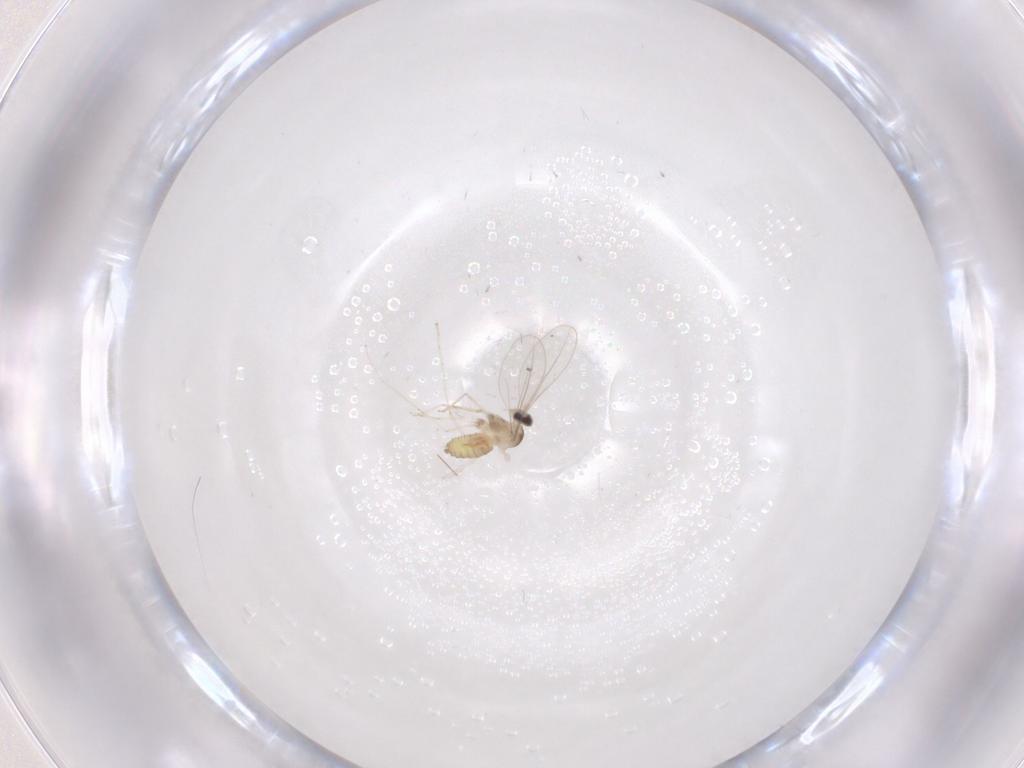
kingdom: Animalia
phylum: Arthropoda
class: Insecta
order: Diptera
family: Cecidomyiidae
